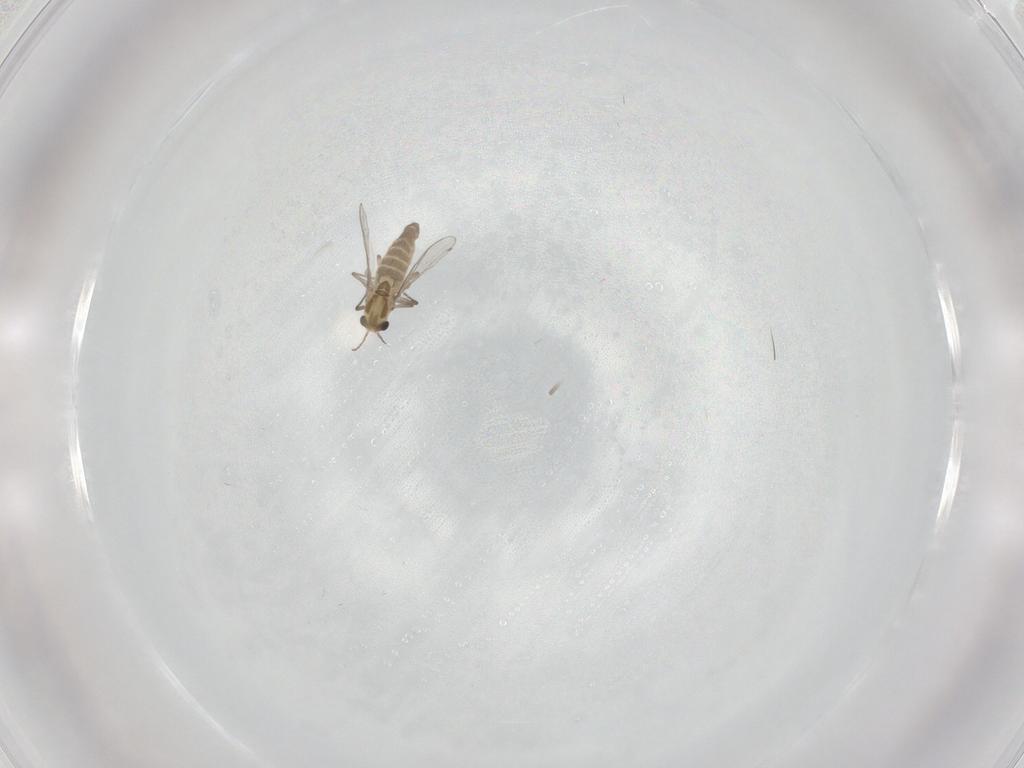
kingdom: Animalia
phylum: Arthropoda
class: Insecta
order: Diptera
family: Chironomidae
